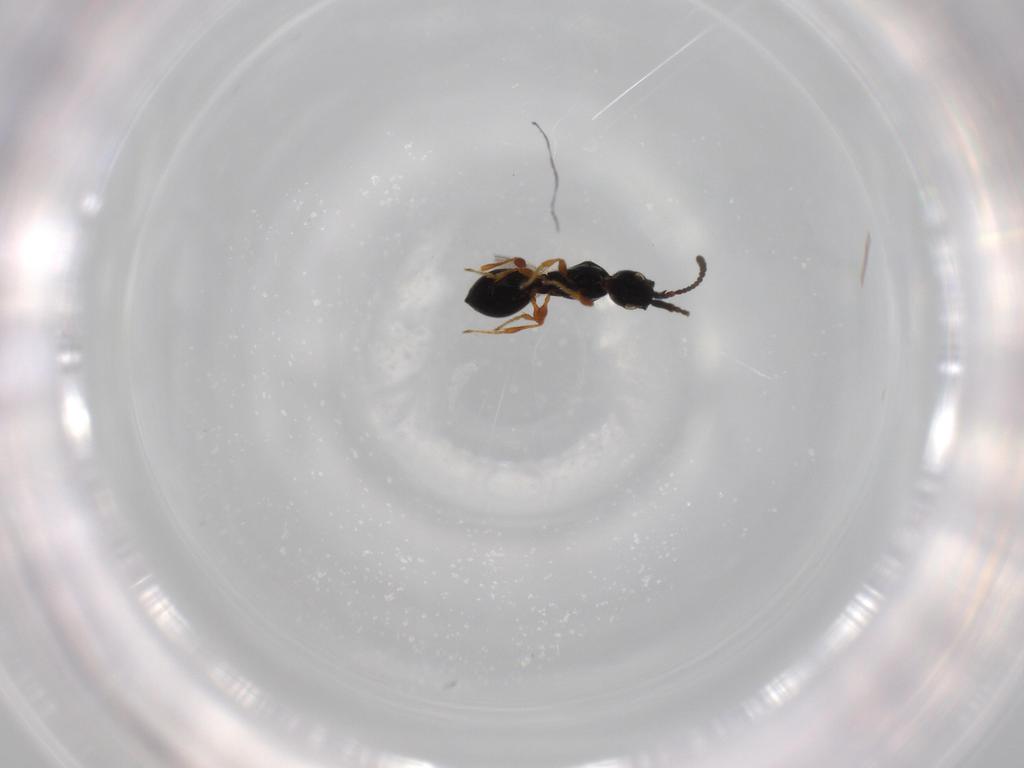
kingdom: Animalia
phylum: Arthropoda
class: Insecta
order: Hymenoptera
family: Diapriidae
